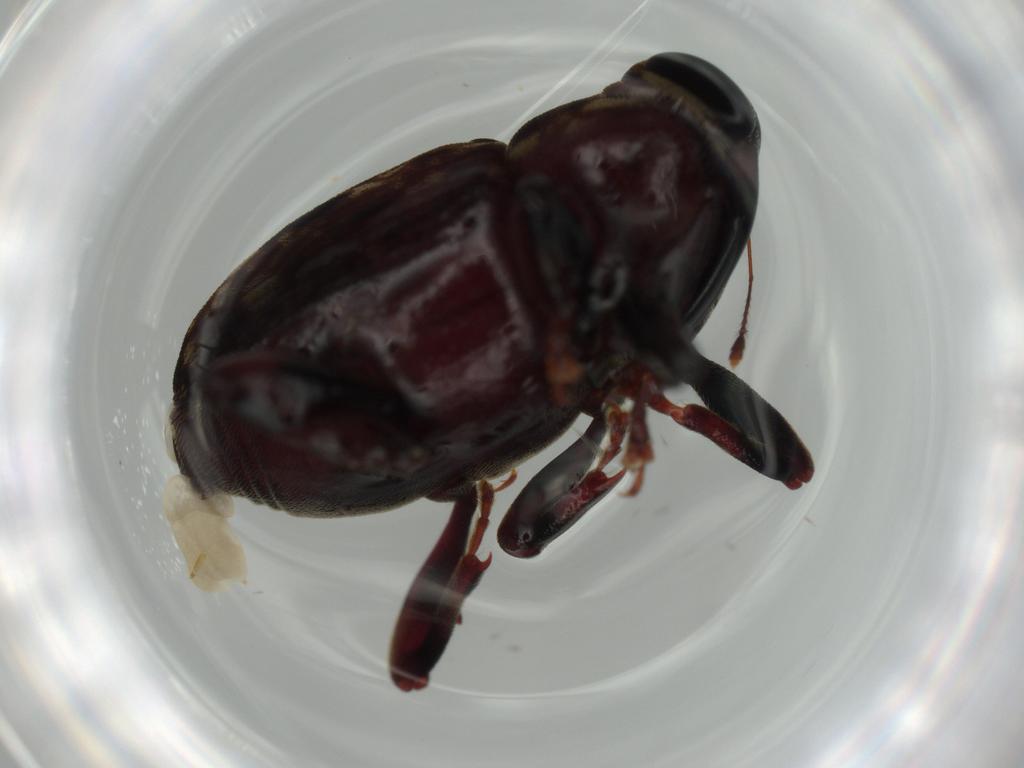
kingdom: Animalia
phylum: Arthropoda
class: Insecta
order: Coleoptera
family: Curculionidae
